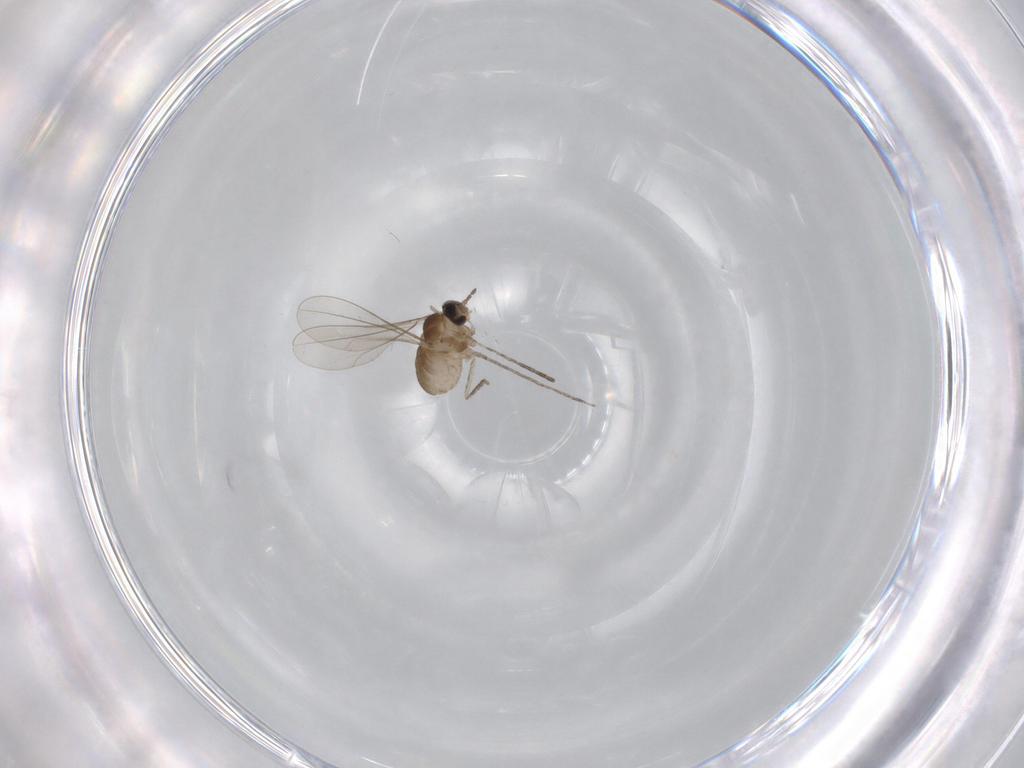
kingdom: Animalia
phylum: Arthropoda
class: Insecta
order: Diptera
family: Cecidomyiidae
